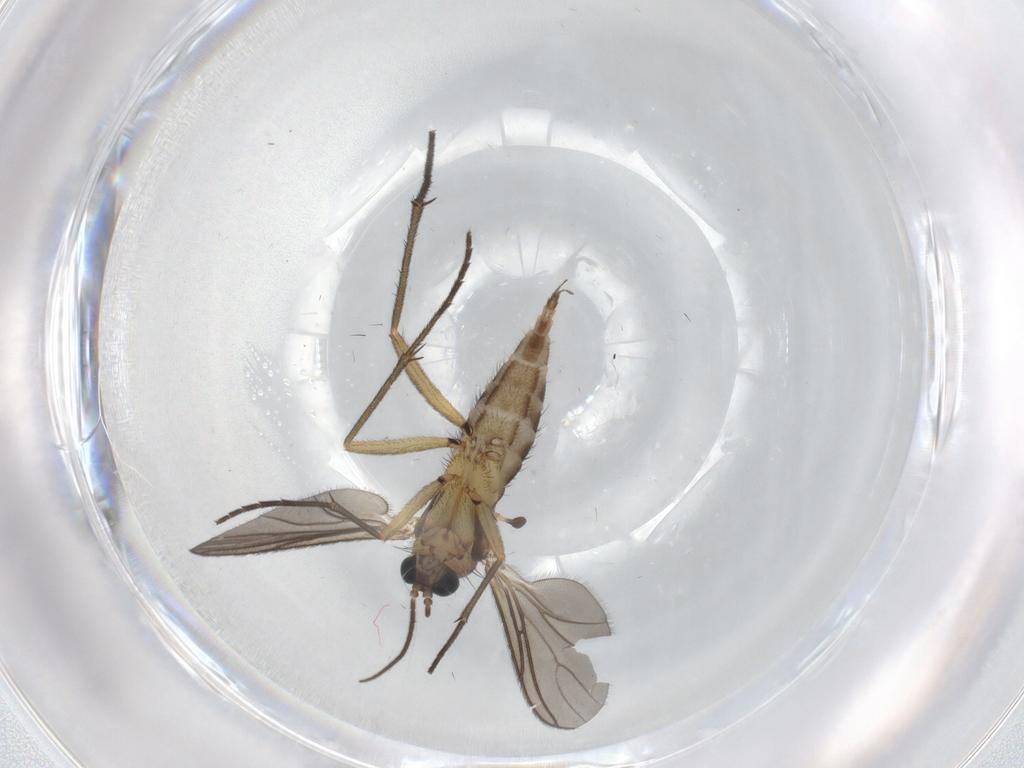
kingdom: Animalia
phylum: Arthropoda
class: Insecta
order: Diptera
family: Sciaridae
